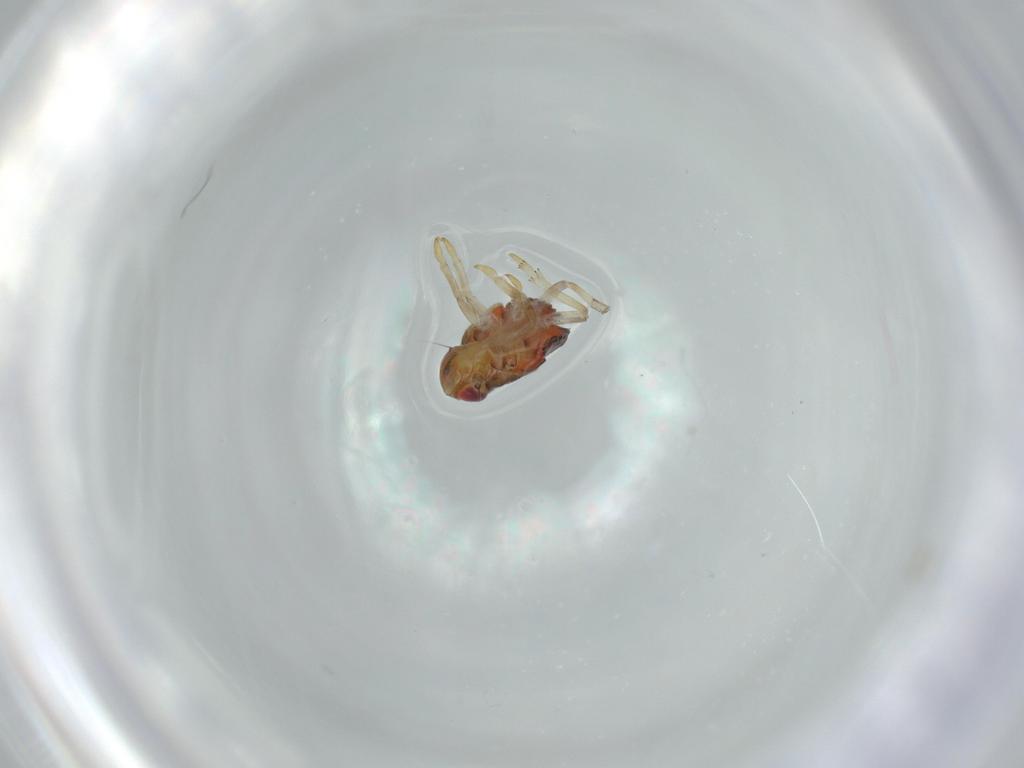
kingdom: Animalia
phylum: Arthropoda
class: Insecta
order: Hemiptera
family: Issidae
